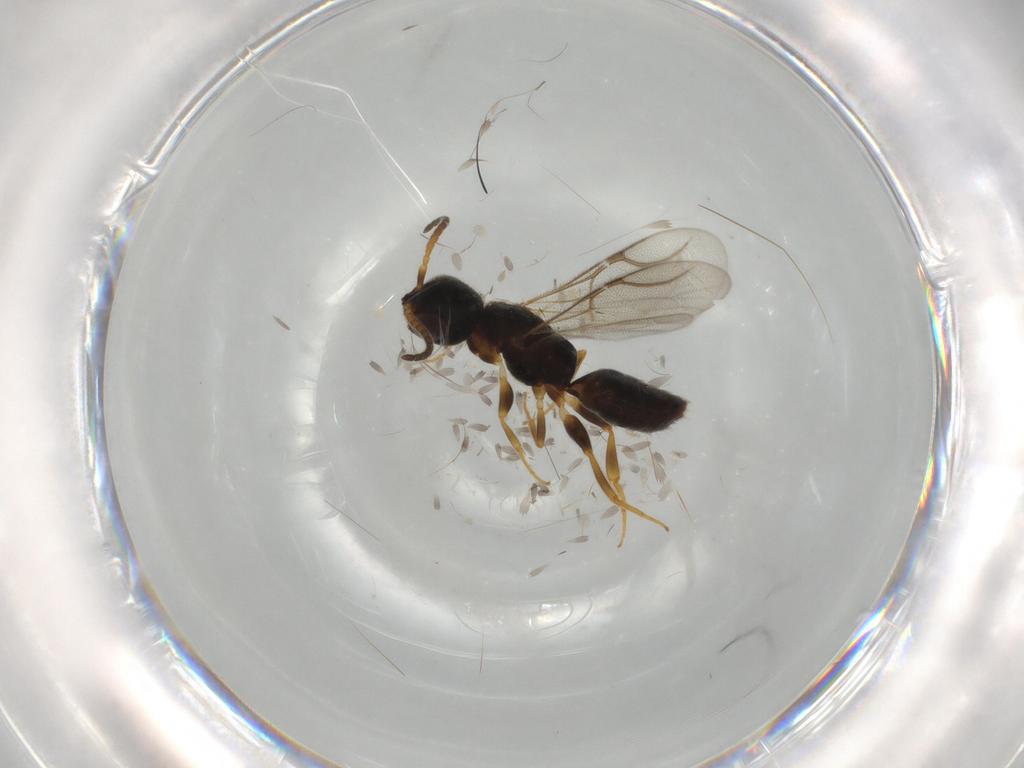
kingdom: Animalia
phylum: Arthropoda
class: Insecta
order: Hymenoptera
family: Bethylidae
